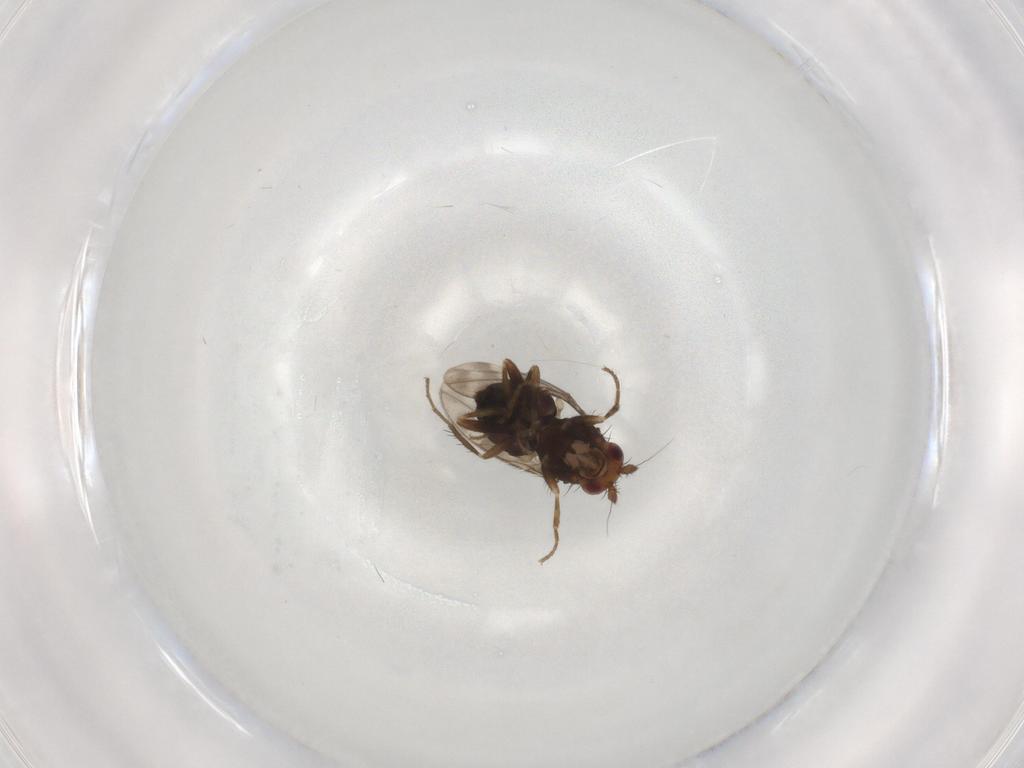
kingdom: Animalia
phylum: Arthropoda
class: Insecta
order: Diptera
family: Sphaeroceridae
